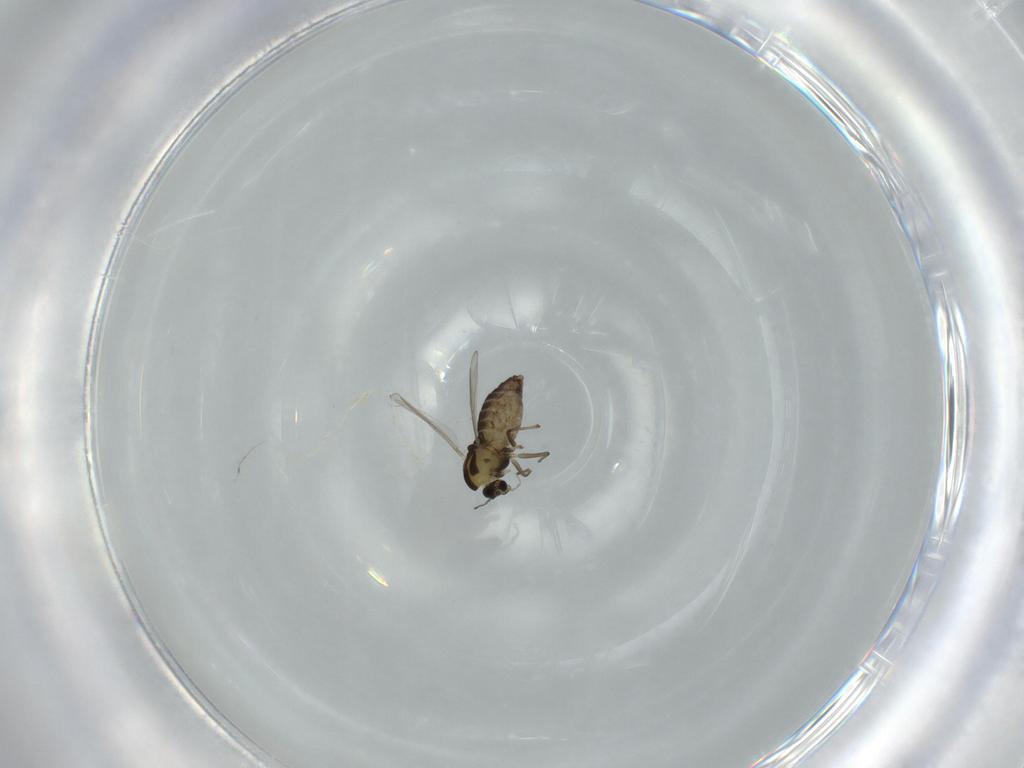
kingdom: Animalia
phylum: Arthropoda
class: Insecta
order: Diptera
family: Chironomidae
